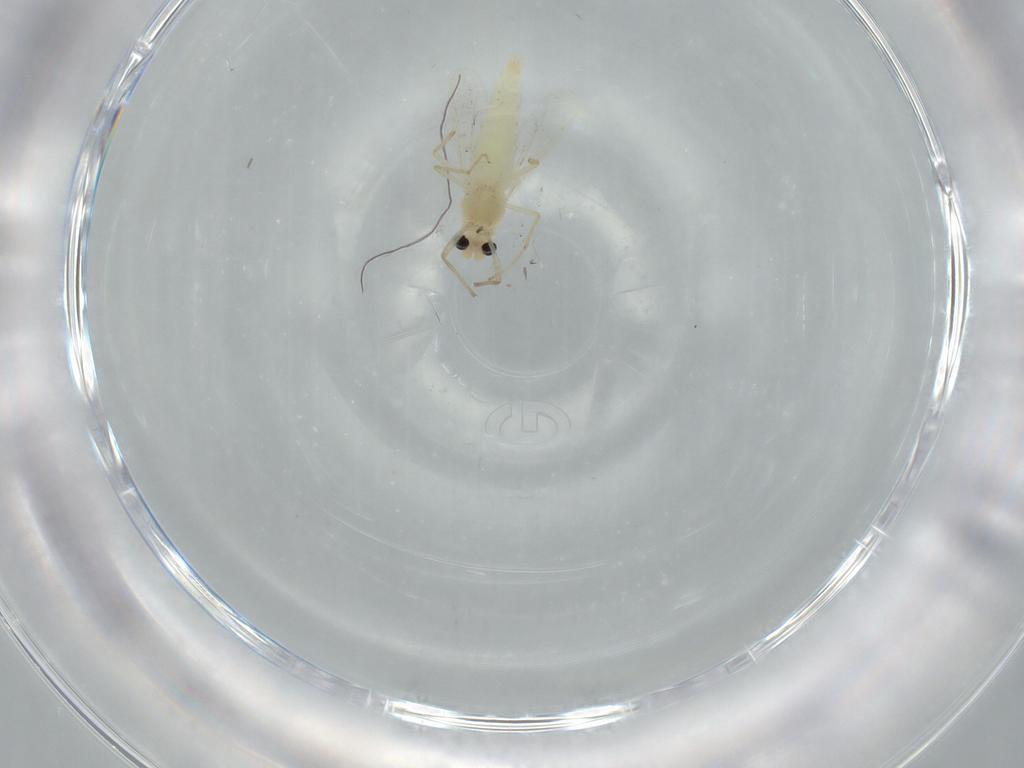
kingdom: Animalia
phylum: Arthropoda
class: Insecta
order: Diptera
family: Chironomidae
